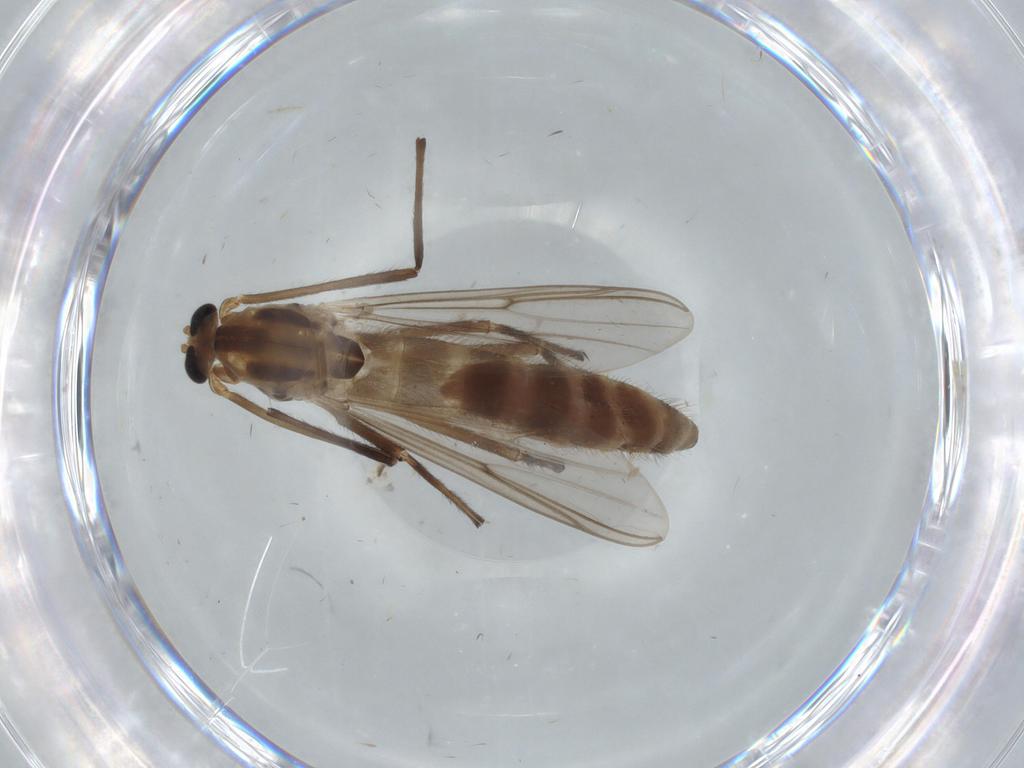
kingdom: Animalia
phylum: Arthropoda
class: Insecta
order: Diptera
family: Chironomidae
